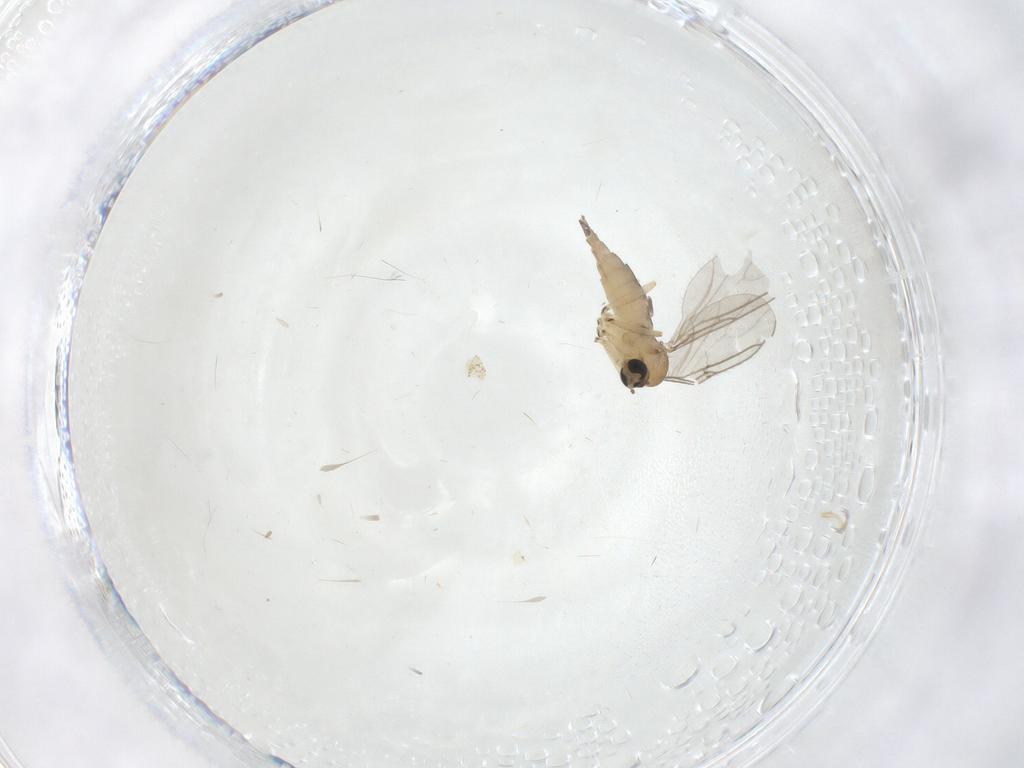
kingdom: Animalia
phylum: Arthropoda
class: Insecta
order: Diptera
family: Sciaridae
